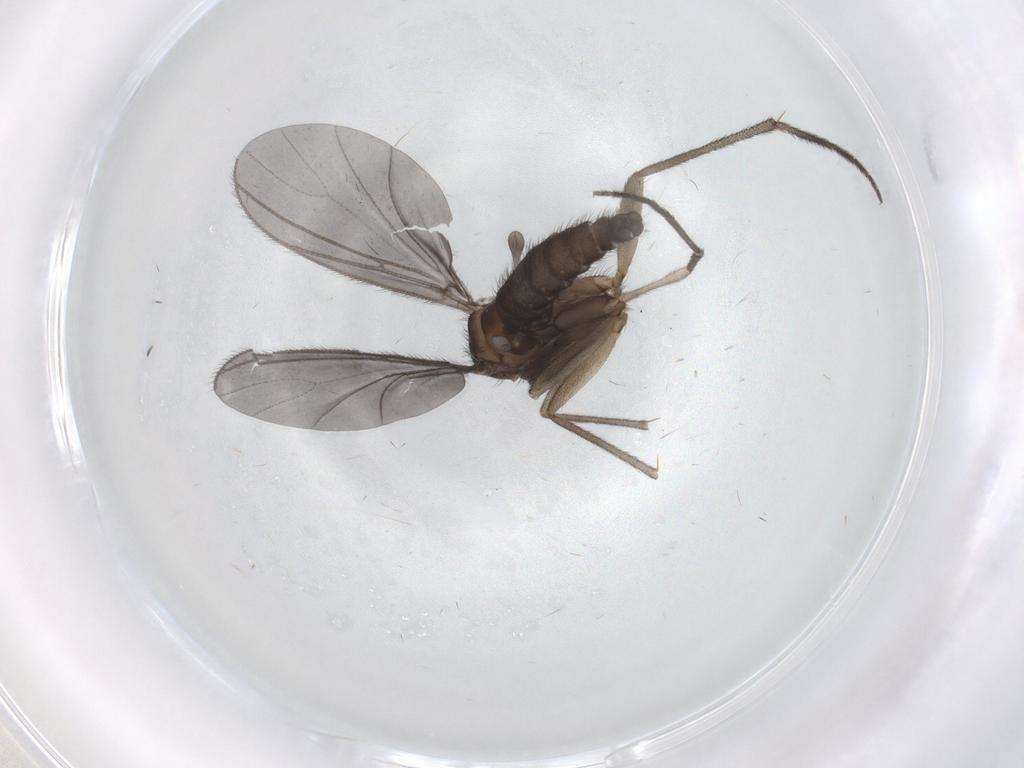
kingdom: Animalia
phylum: Arthropoda
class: Insecta
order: Diptera
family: Sciaridae
